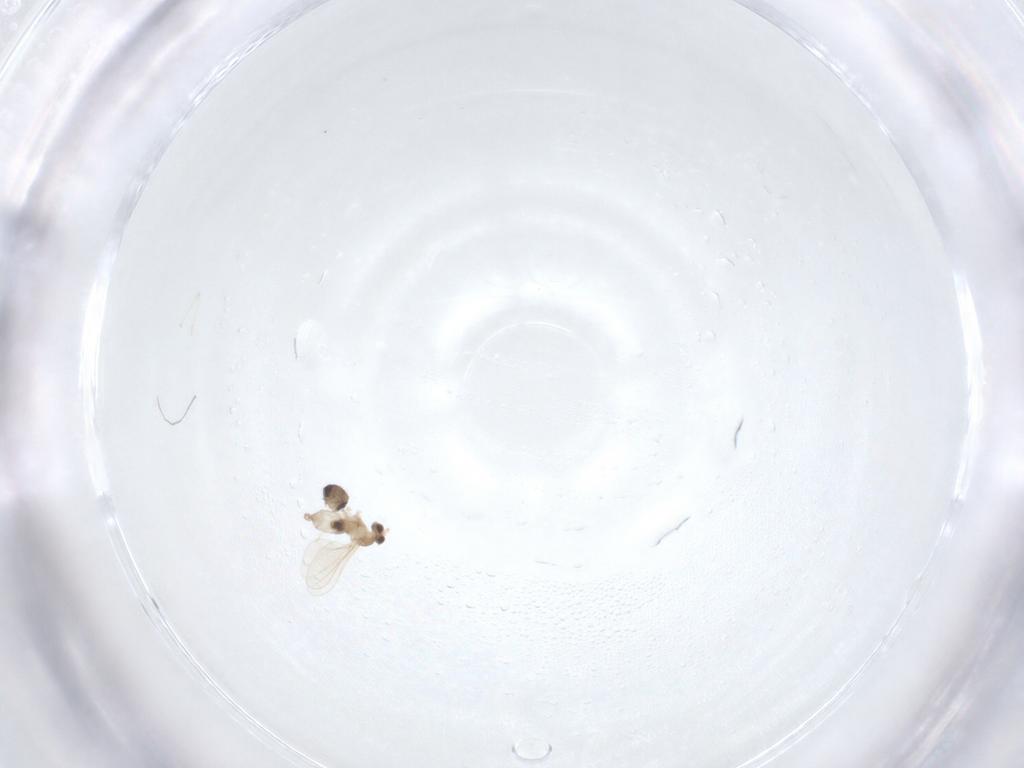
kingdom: Animalia
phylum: Arthropoda
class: Insecta
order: Diptera
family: Cecidomyiidae
